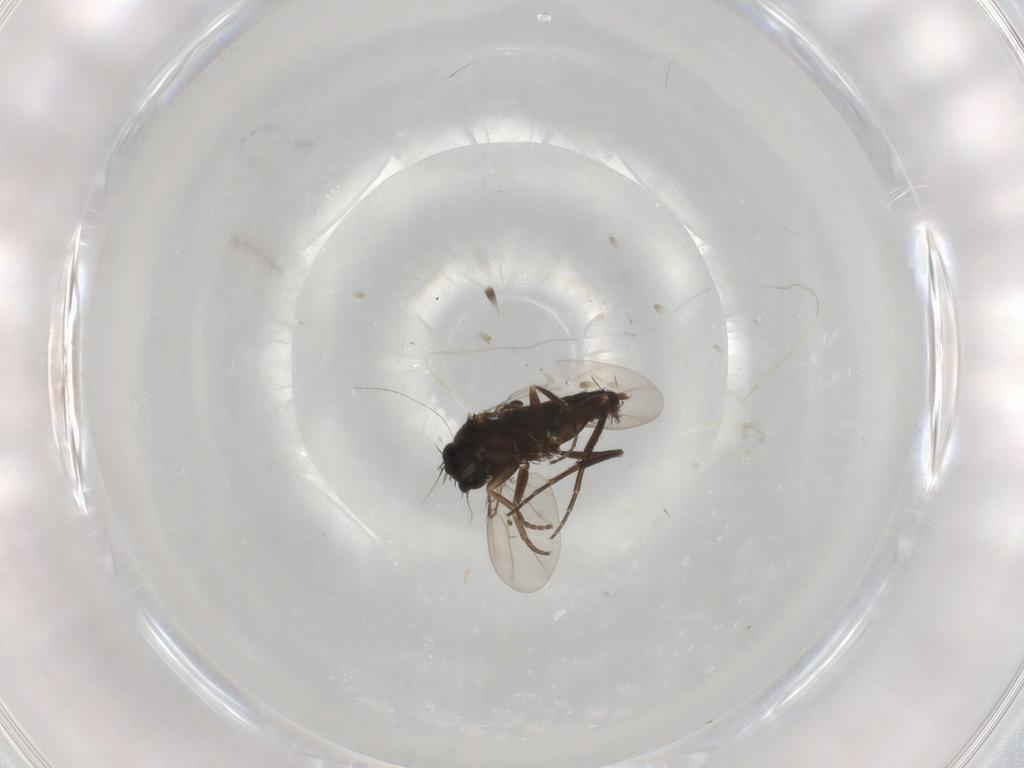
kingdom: Animalia
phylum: Arthropoda
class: Insecta
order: Diptera
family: Phoridae
